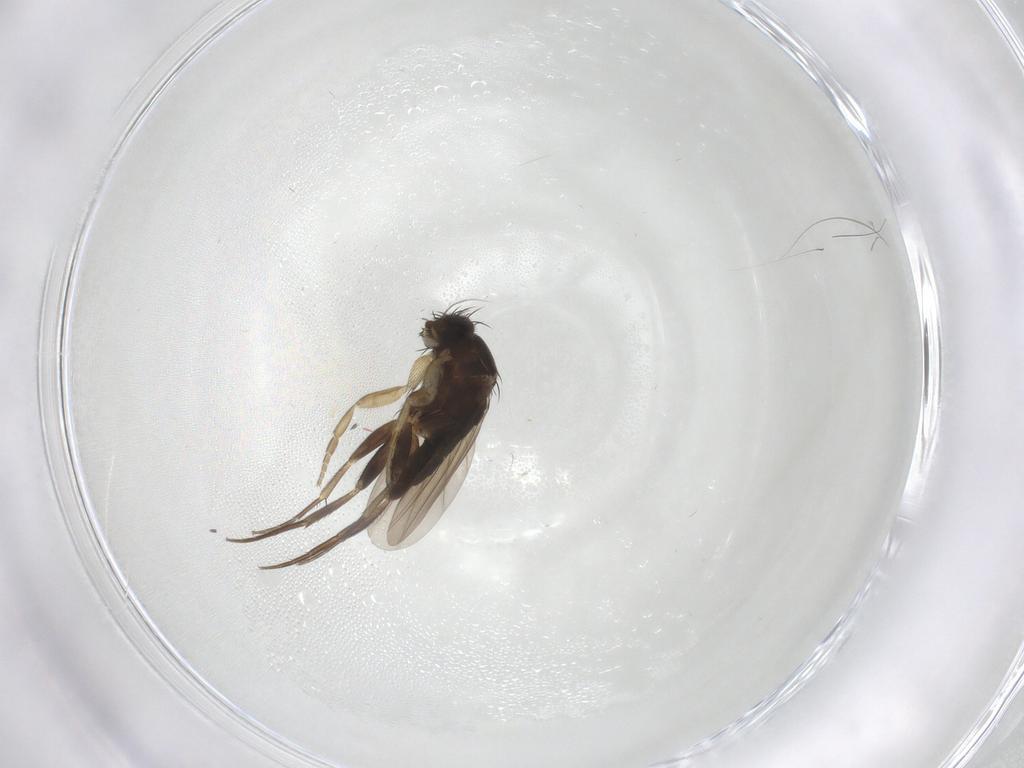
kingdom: Animalia
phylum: Arthropoda
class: Insecta
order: Diptera
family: Phoridae
